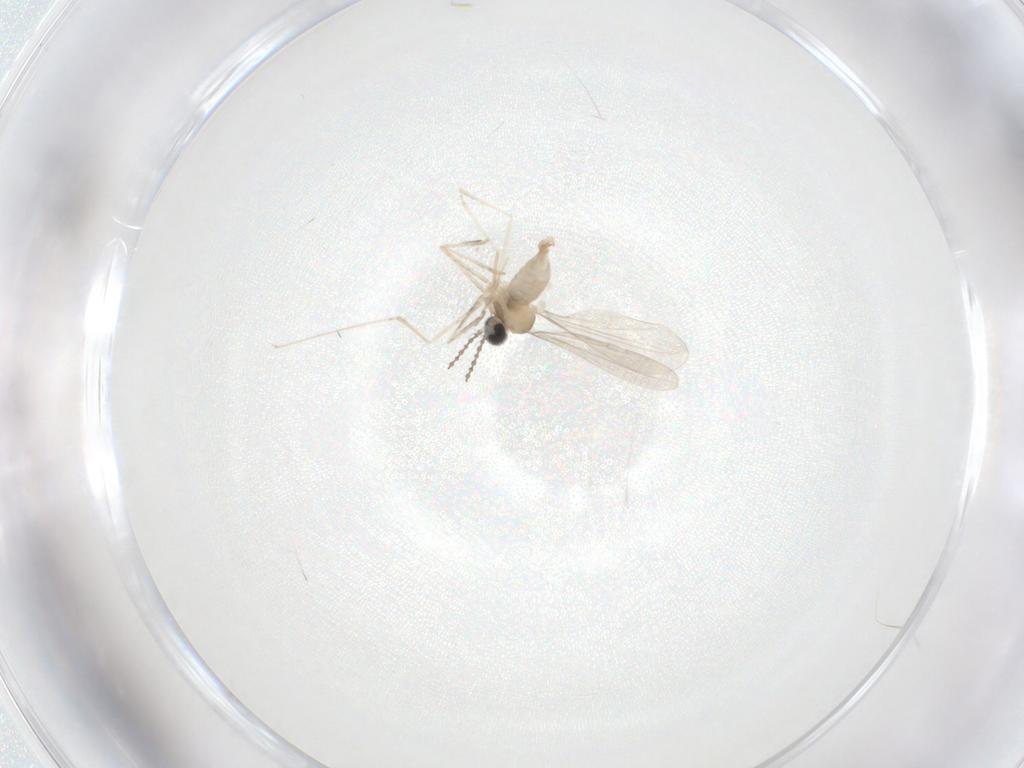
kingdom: Animalia
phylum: Arthropoda
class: Insecta
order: Diptera
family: Cecidomyiidae
